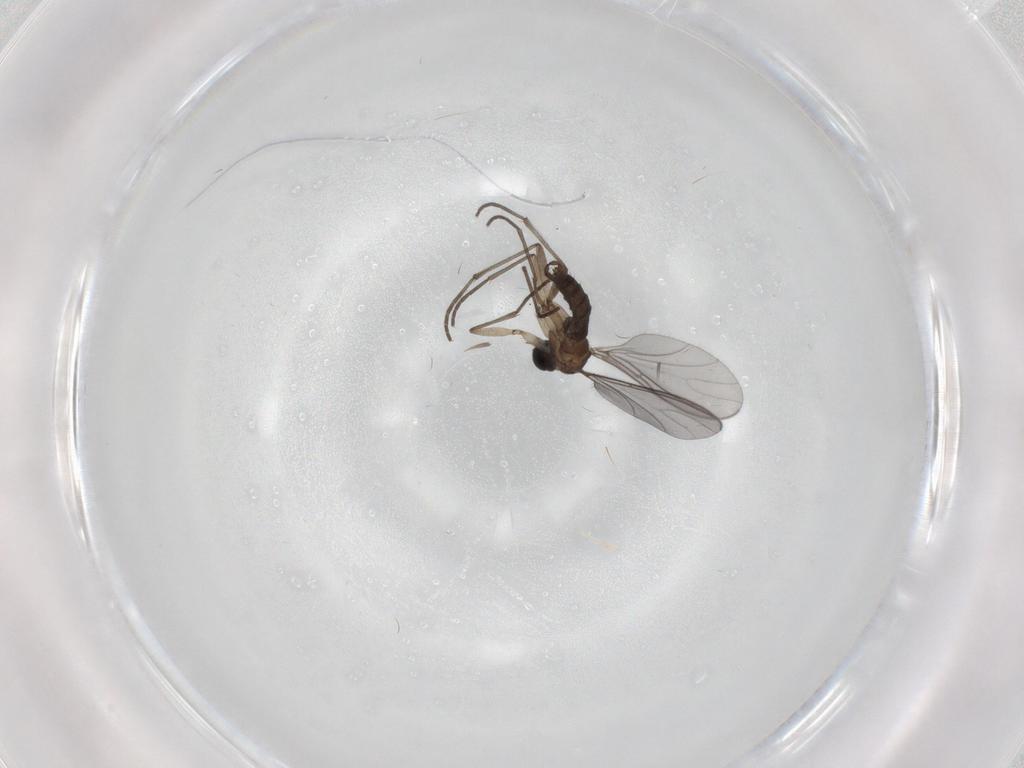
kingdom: Animalia
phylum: Arthropoda
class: Insecta
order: Diptera
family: Sciaridae
